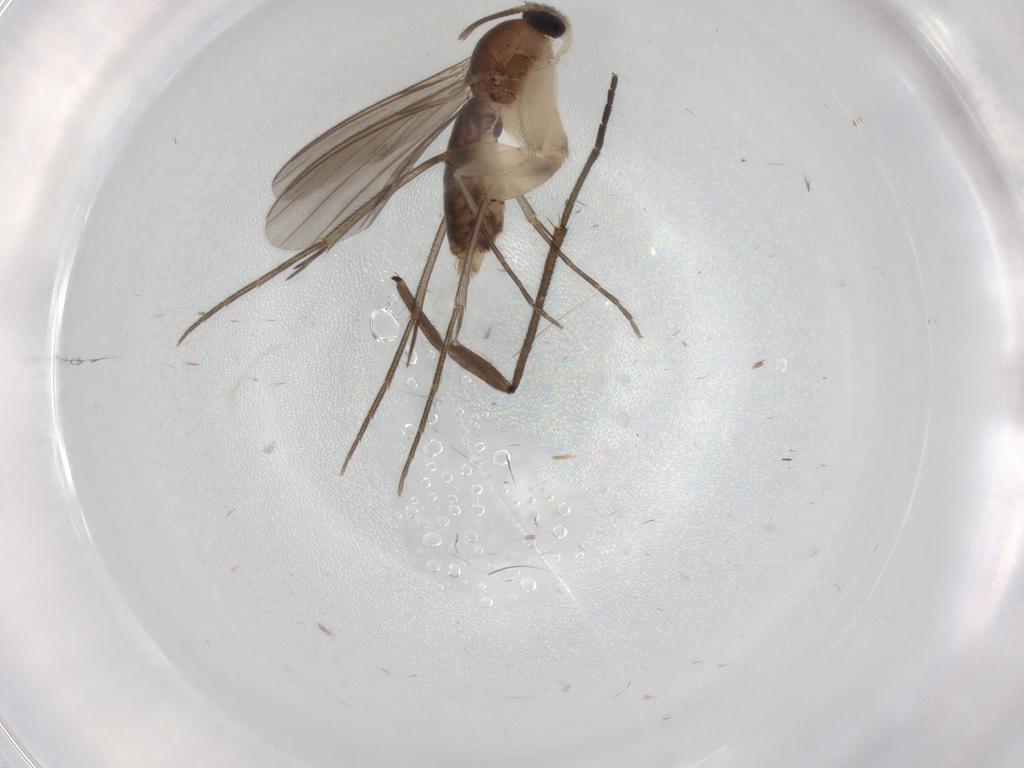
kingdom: Animalia
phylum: Arthropoda
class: Insecta
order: Diptera
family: Mycetophilidae
